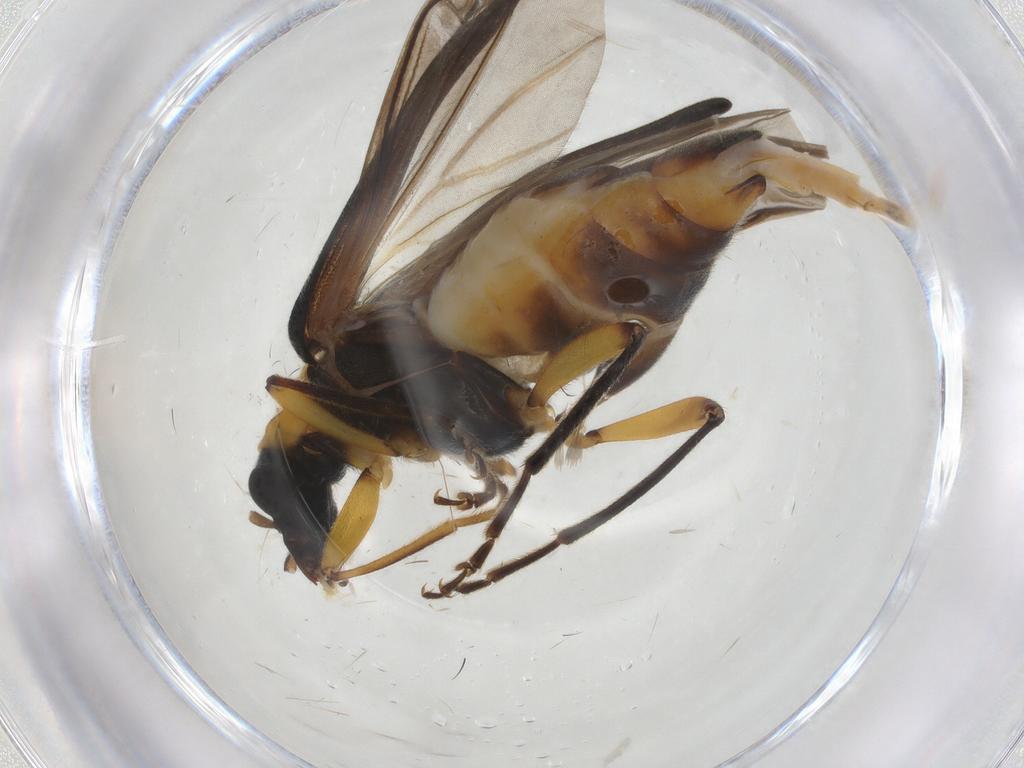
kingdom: Animalia
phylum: Arthropoda
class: Insecta
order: Coleoptera
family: Oedemeridae
